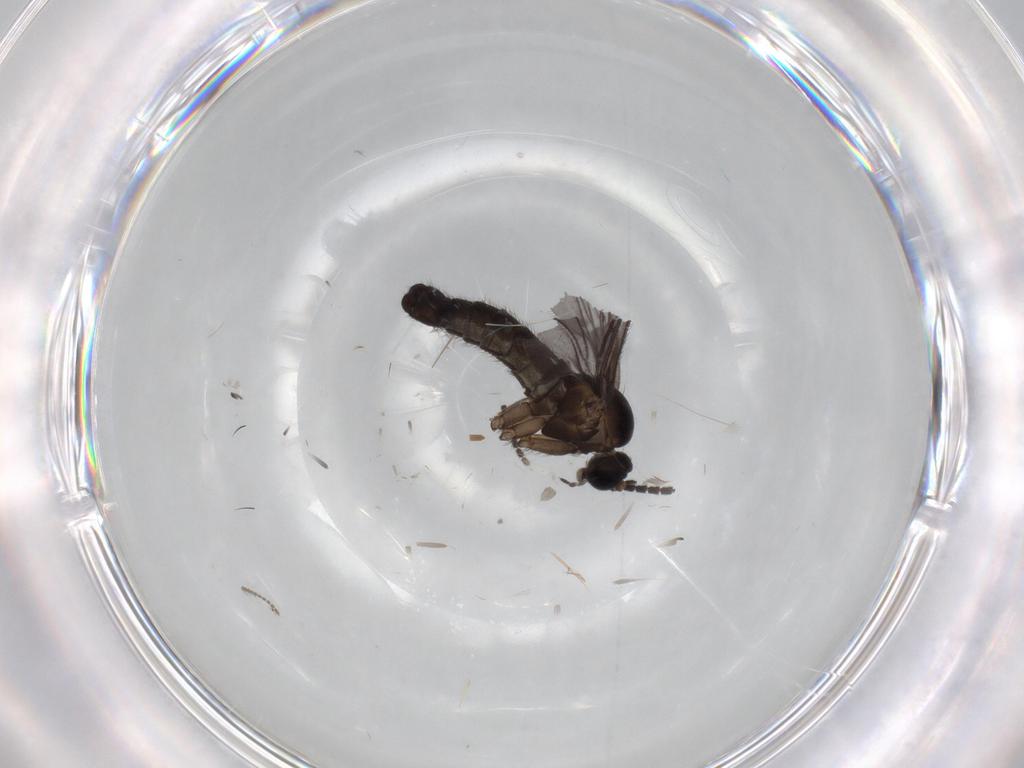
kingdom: Animalia
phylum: Arthropoda
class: Insecta
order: Diptera
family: Sciaridae
